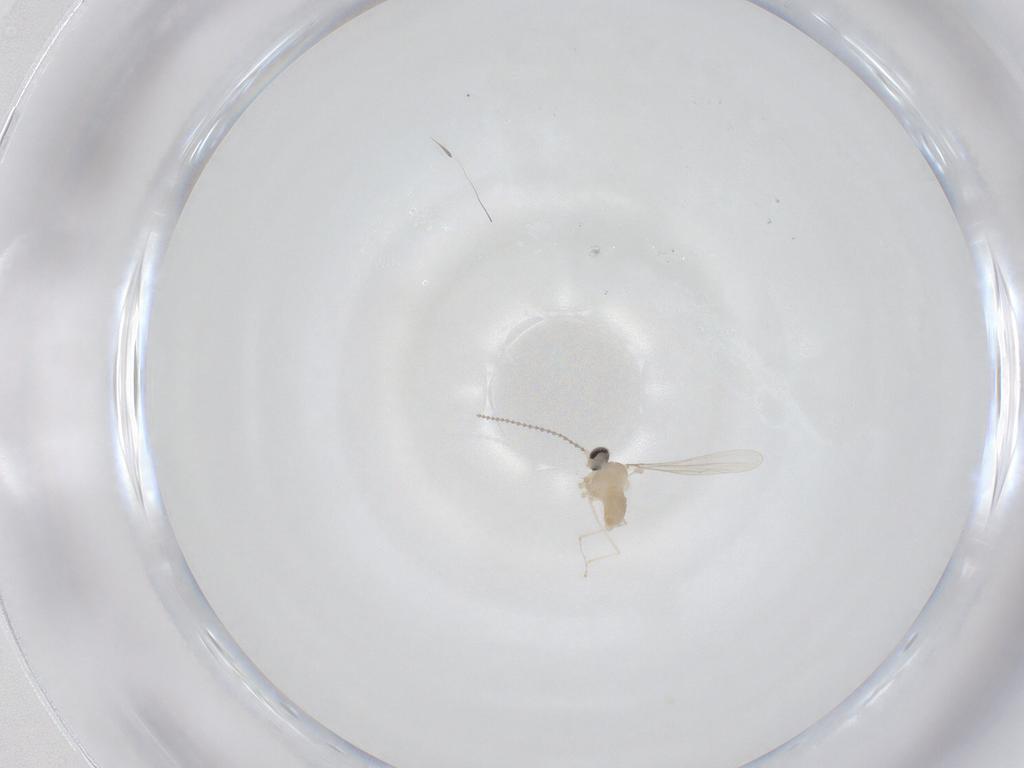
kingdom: Animalia
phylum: Arthropoda
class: Insecta
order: Diptera
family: Cecidomyiidae
